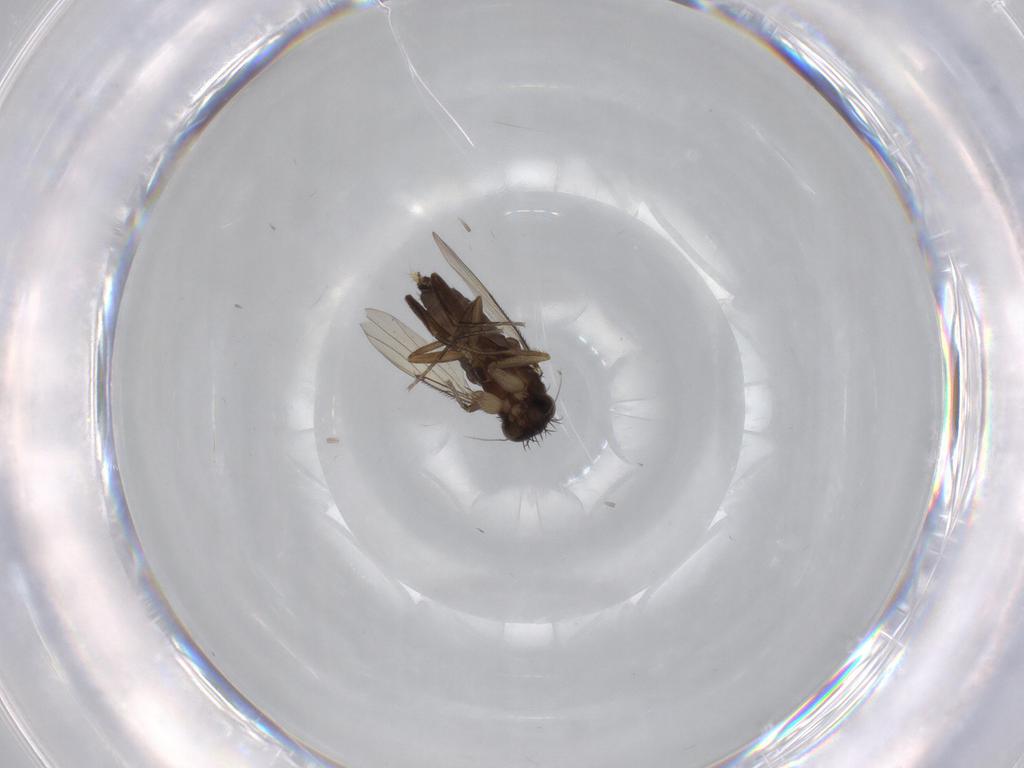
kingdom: Animalia
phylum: Arthropoda
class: Insecta
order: Diptera
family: Phoridae
